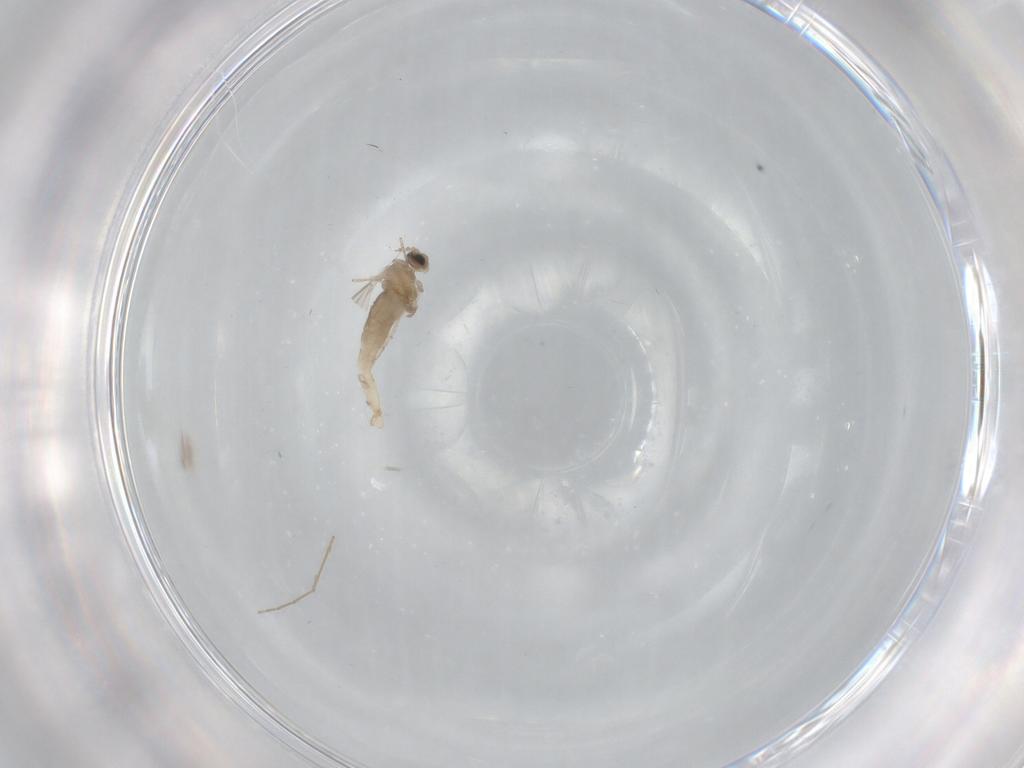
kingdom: Animalia
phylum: Arthropoda
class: Insecta
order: Diptera
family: Cecidomyiidae
